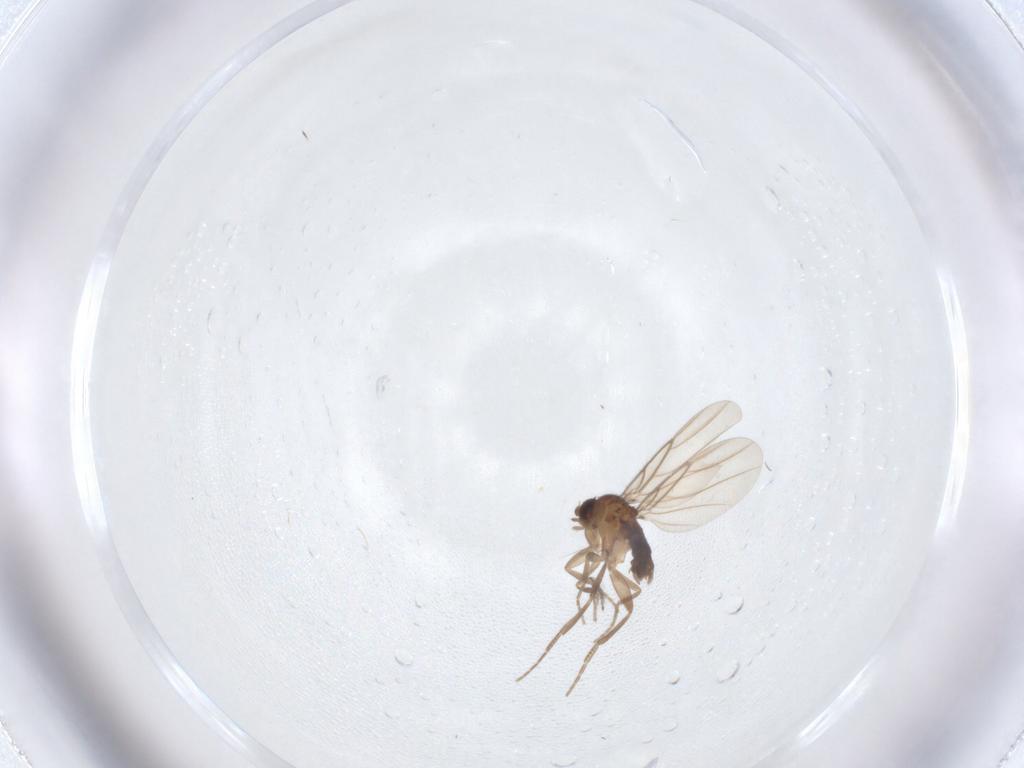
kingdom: Animalia
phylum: Arthropoda
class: Insecta
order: Diptera
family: Phoridae
